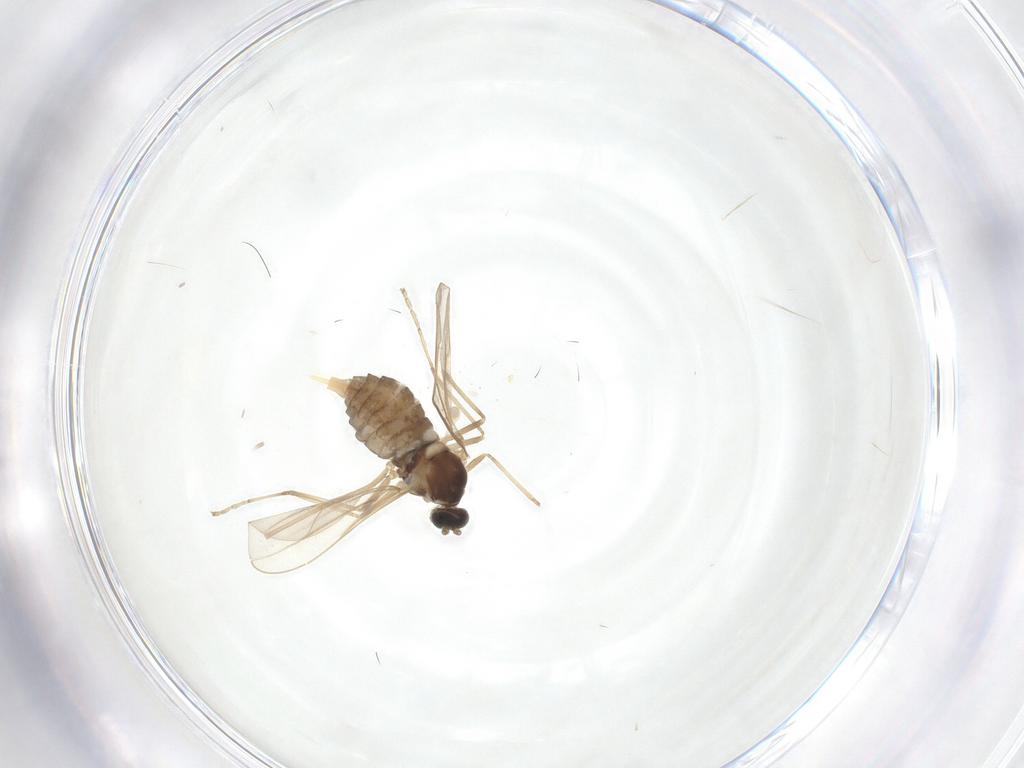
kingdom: Animalia
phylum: Arthropoda
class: Insecta
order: Diptera
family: Cecidomyiidae
